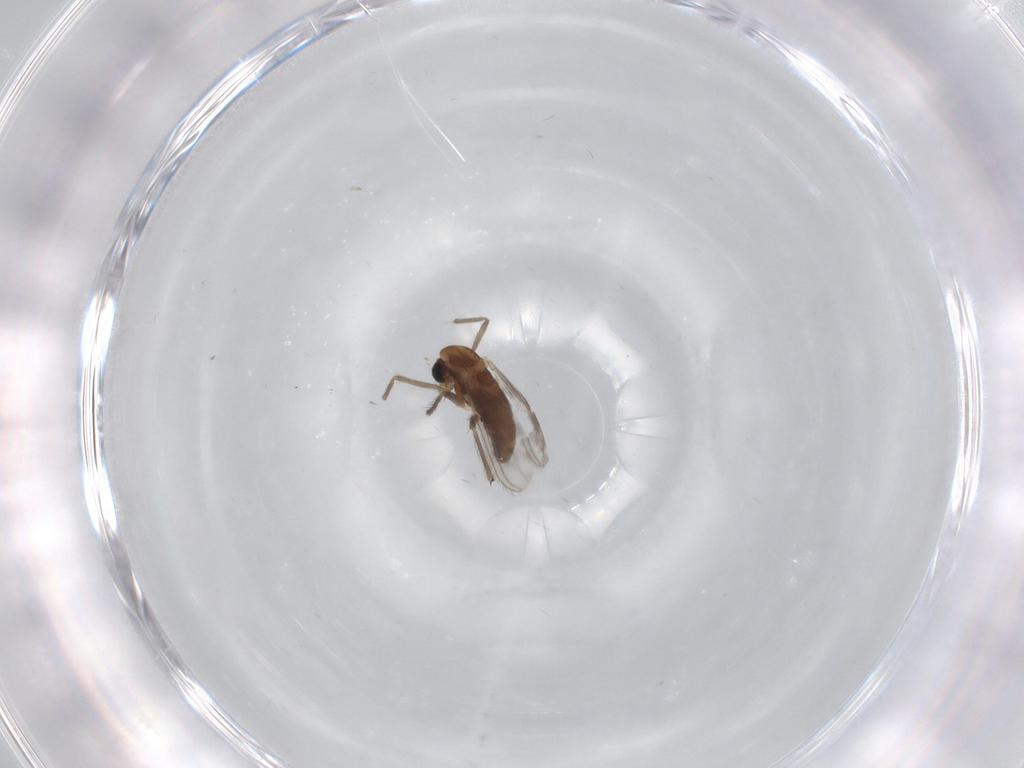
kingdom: Animalia
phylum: Arthropoda
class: Insecta
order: Diptera
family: Chironomidae
